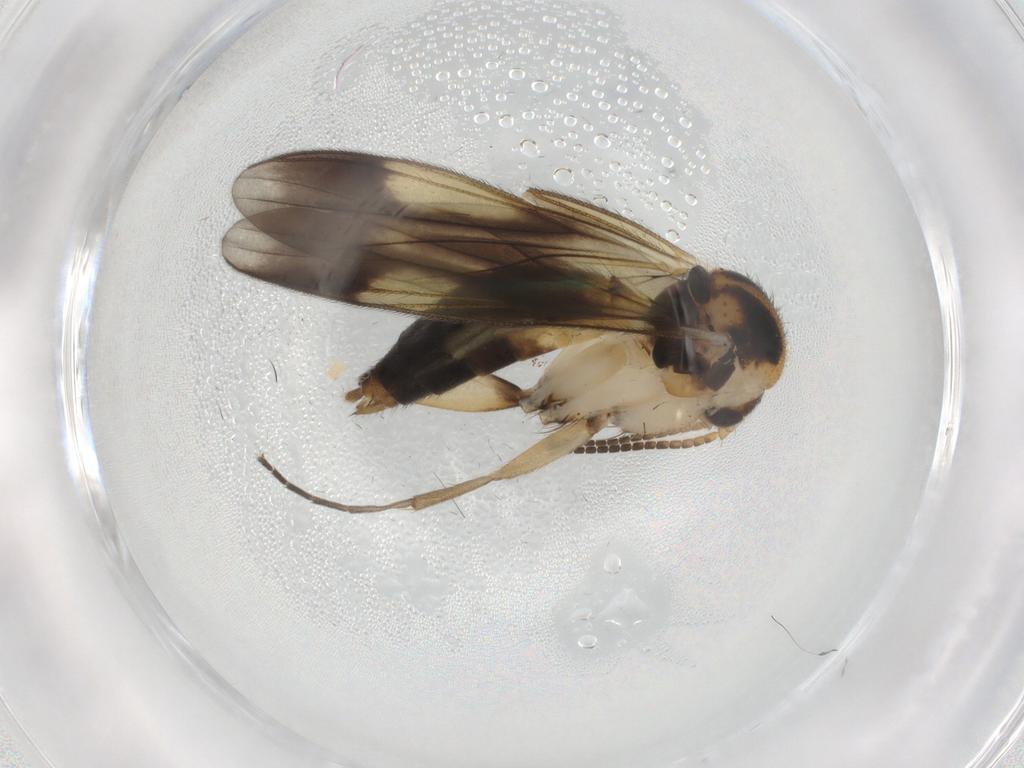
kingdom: Animalia
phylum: Arthropoda
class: Insecta
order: Diptera
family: Mycetophilidae
